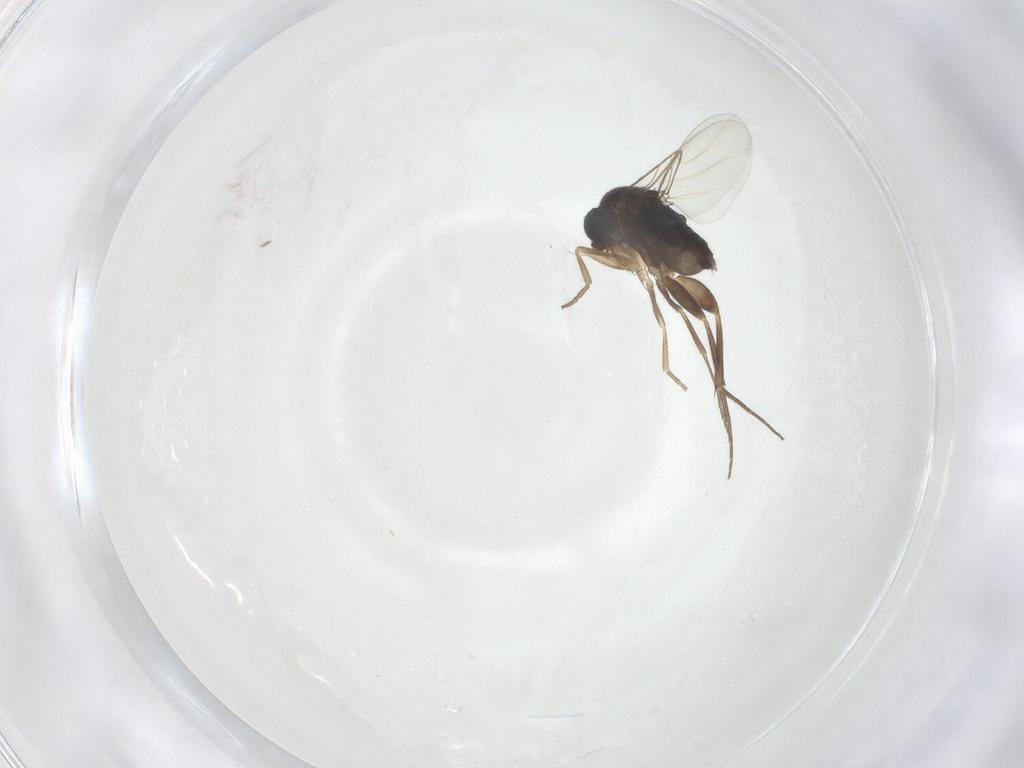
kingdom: Animalia
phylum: Arthropoda
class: Insecta
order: Diptera
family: Phoridae
